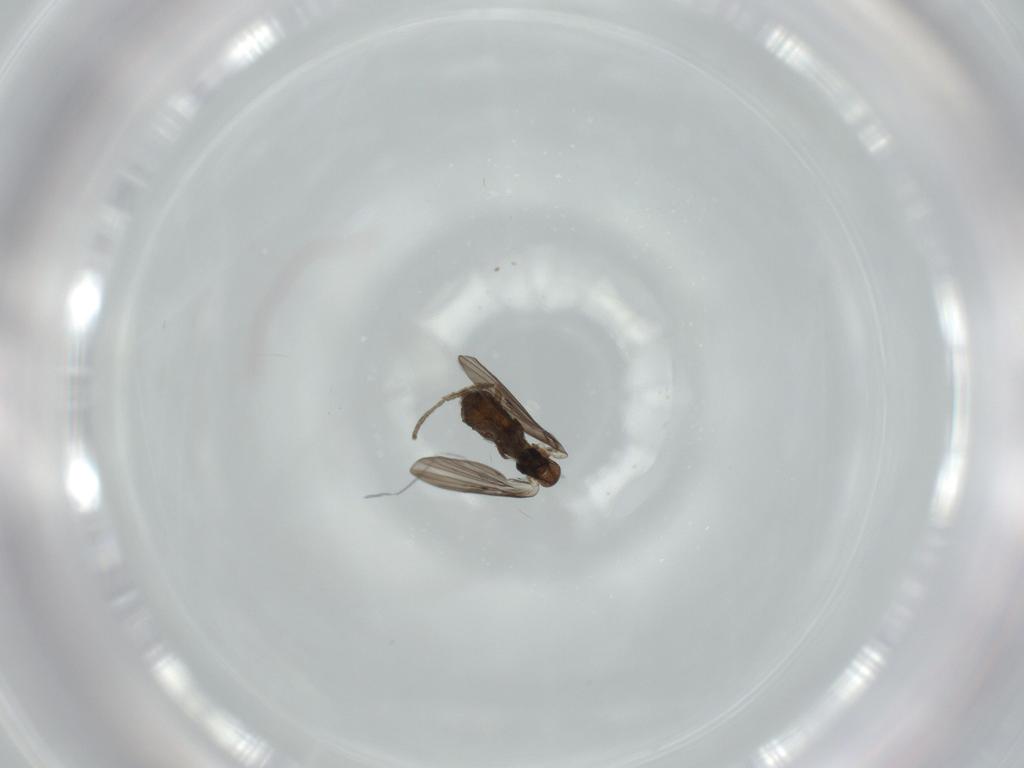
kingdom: Animalia
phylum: Arthropoda
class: Insecta
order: Diptera
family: Psychodidae
